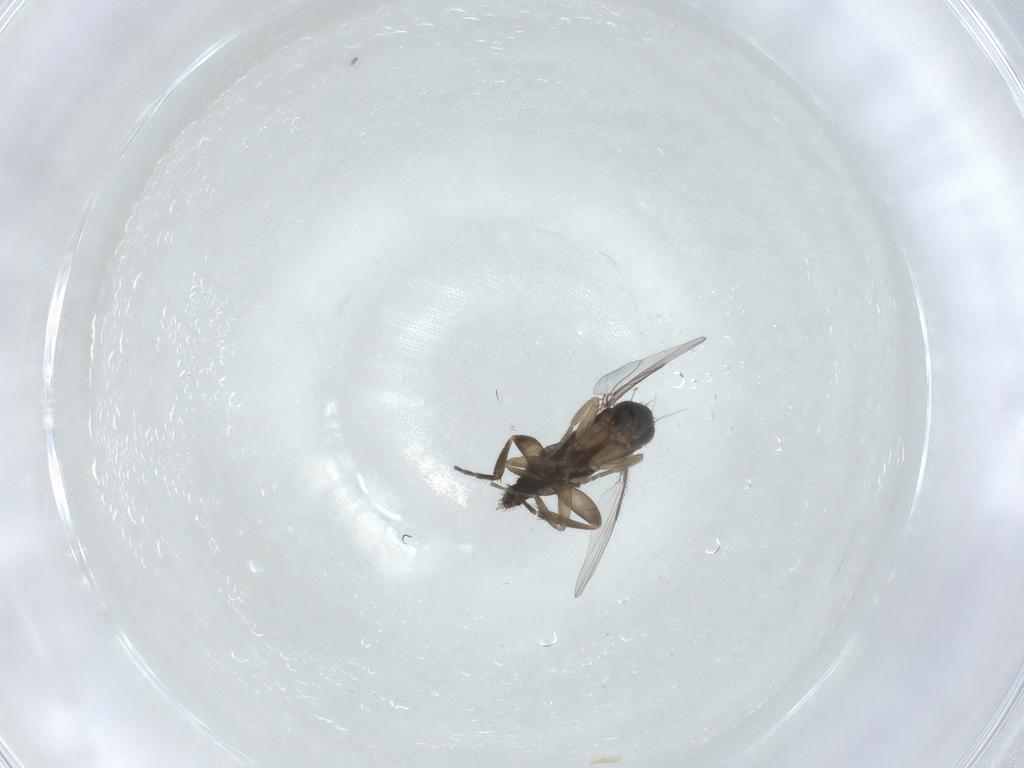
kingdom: Animalia
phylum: Arthropoda
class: Insecta
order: Diptera
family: Phoridae
